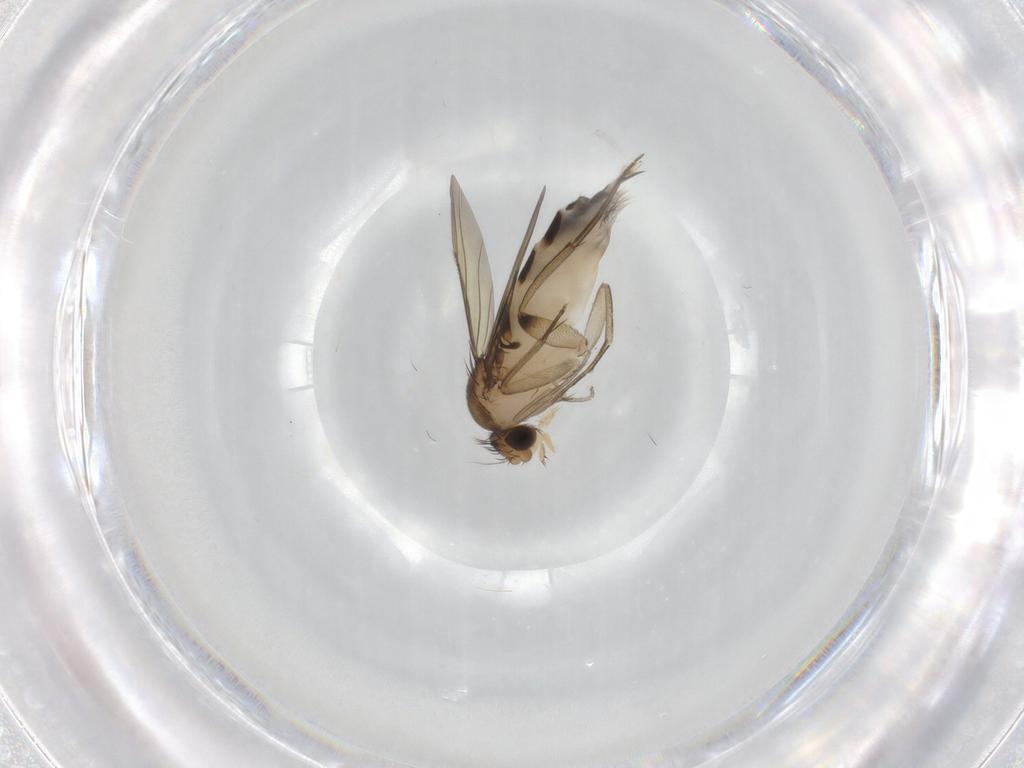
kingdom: Animalia
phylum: Arthropoda
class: Insecta
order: Diptera
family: Phoridae
